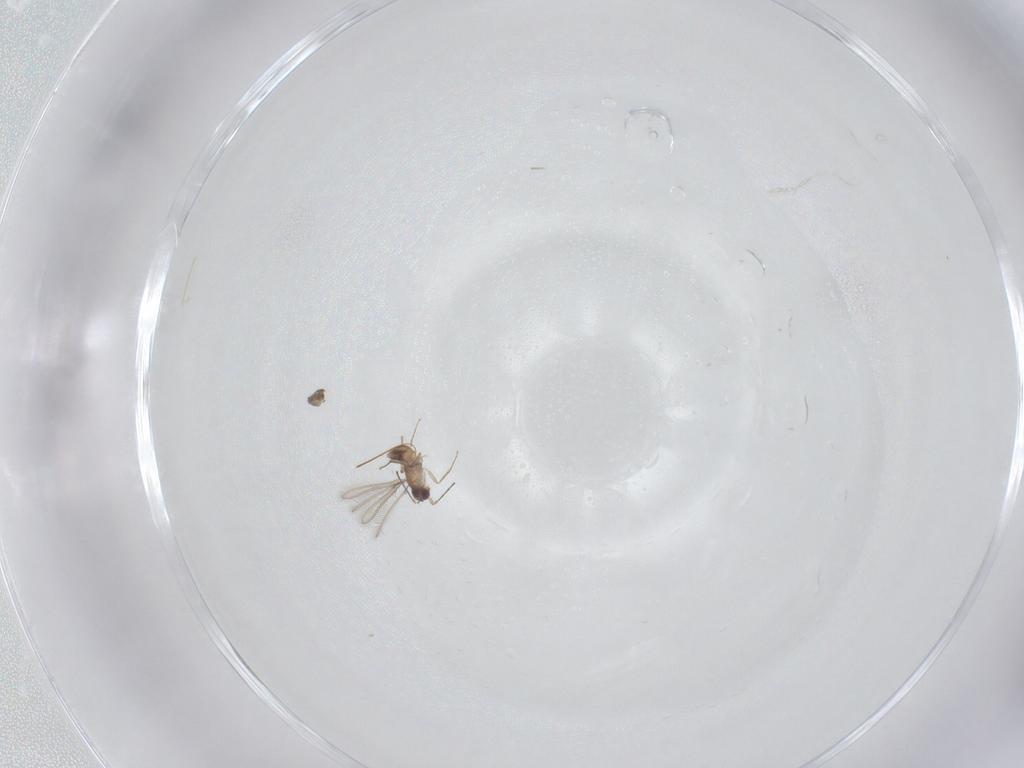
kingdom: Animalia
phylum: Arthropoda
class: Insecta
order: Hymenoptera
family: Mymaridae
